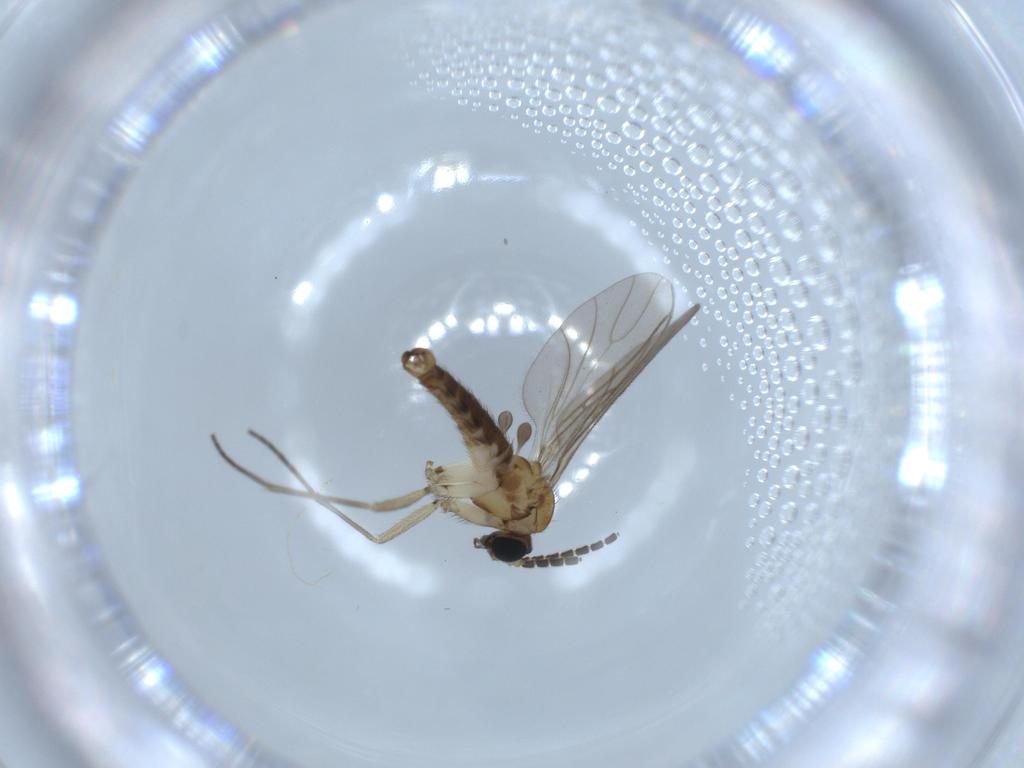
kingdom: Animalia
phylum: Arthropoda
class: Insecta
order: Diptera
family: Sciaridae
